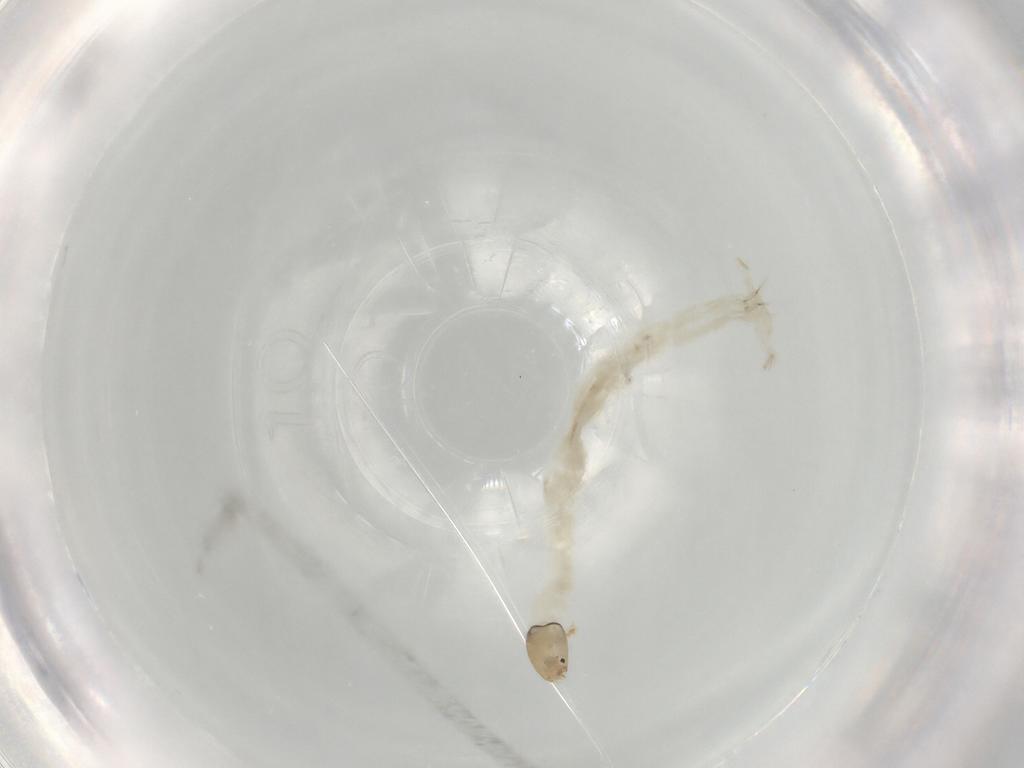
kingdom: Animalia
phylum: Arthropoda
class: Insecta
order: Diptera
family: Chironomidae
